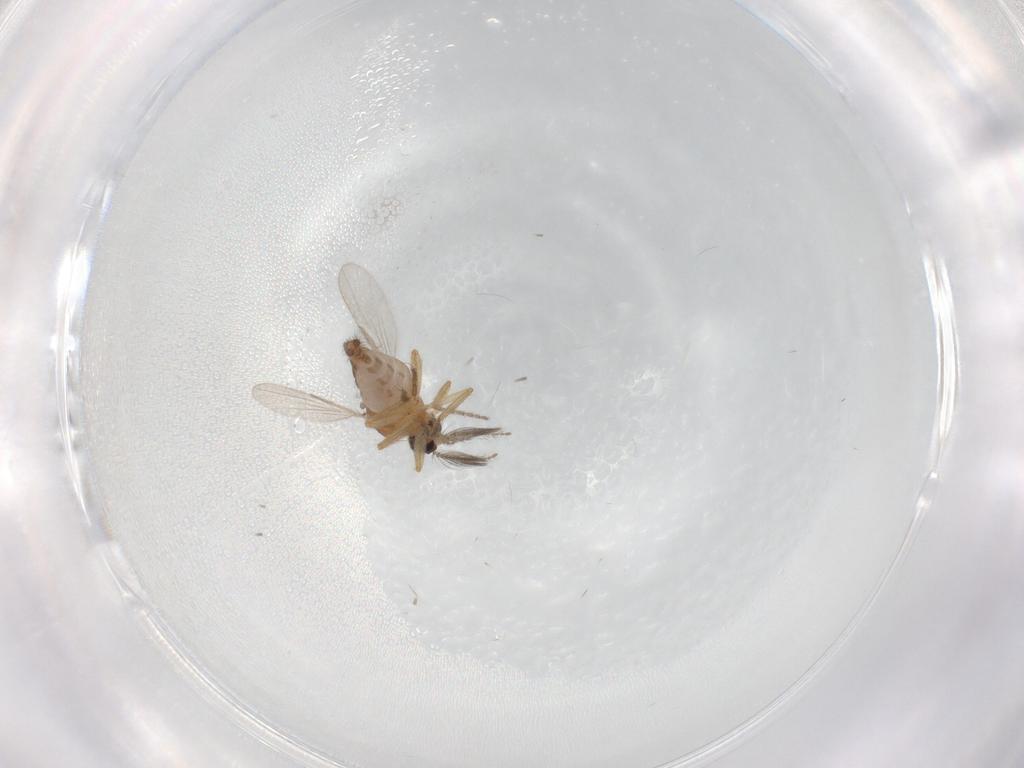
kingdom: Animalia
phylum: Arthropoda
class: Insecta
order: Diptera
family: Ceratopogonidae
